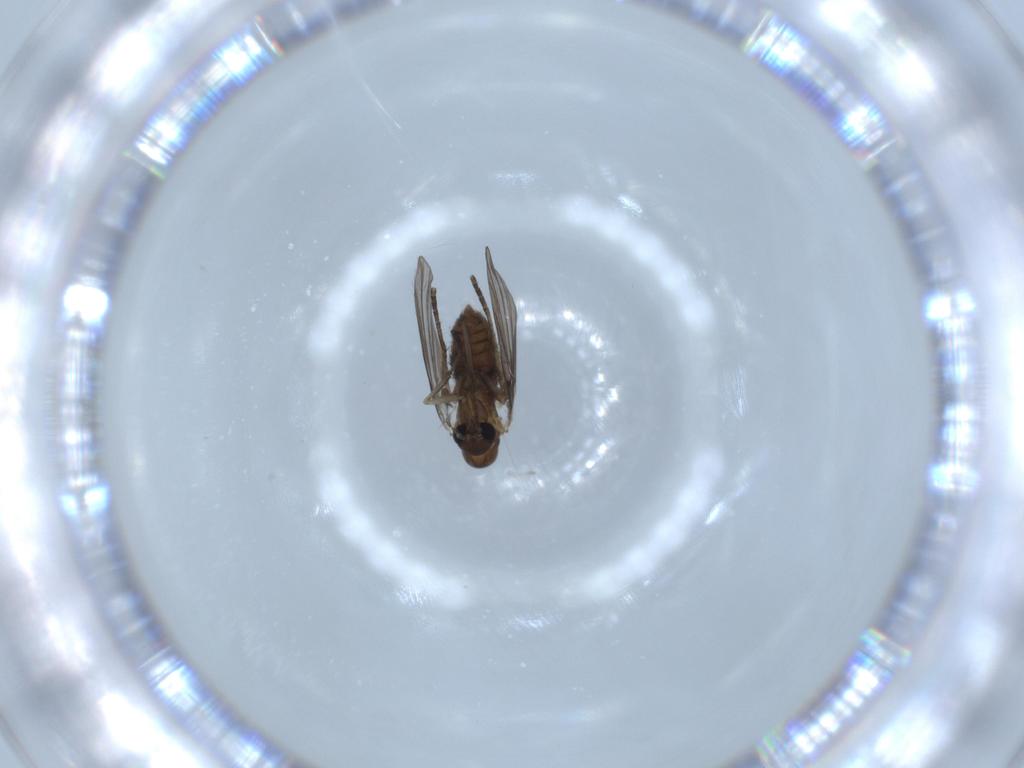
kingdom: Animalia
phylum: Arthropoda
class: Insecta
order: Diptera
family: Psychodidae
